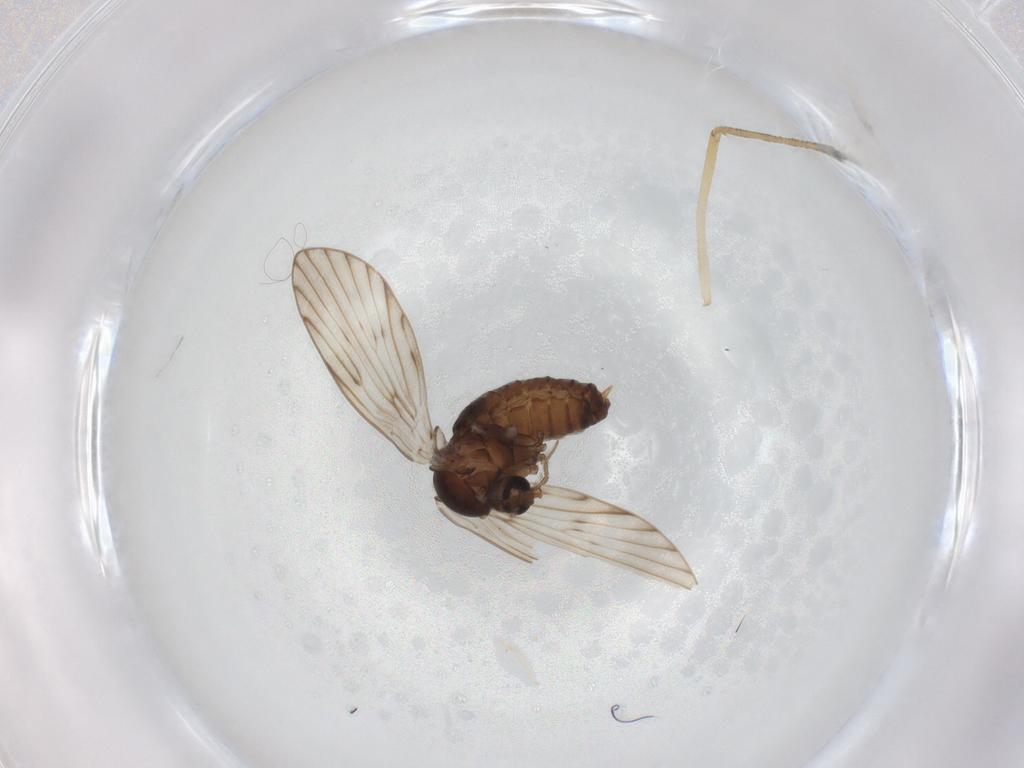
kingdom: Animalia
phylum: Arthropoda
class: Insecta
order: Diptera
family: Psychodidae
